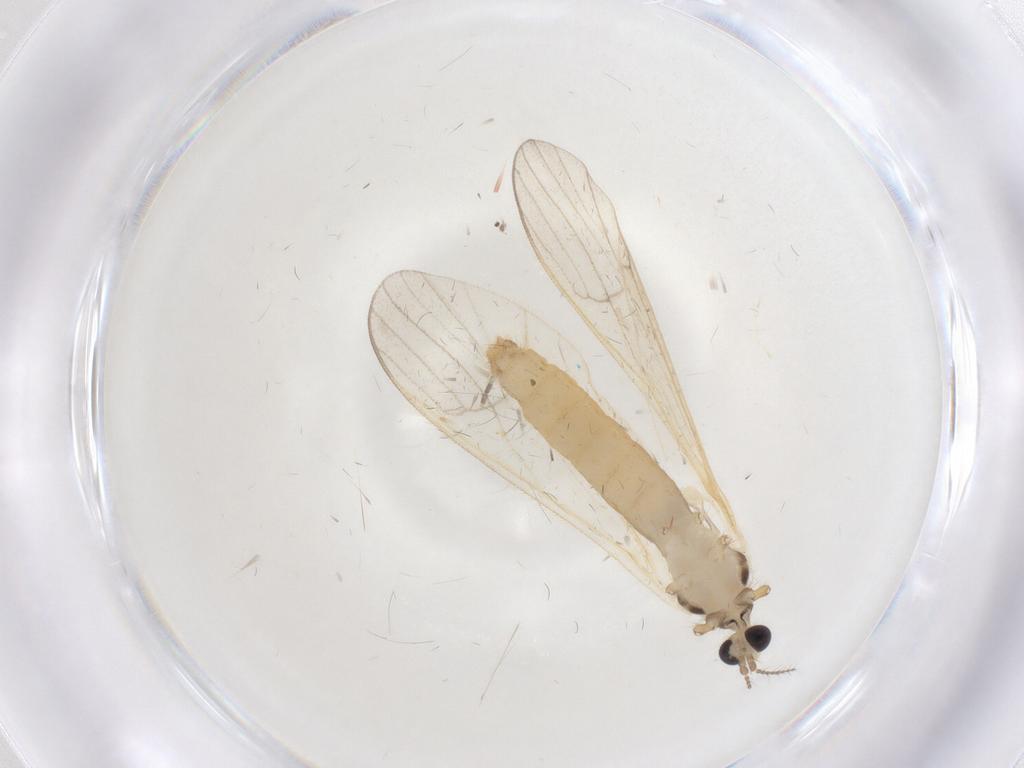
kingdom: Animalia
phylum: Arthropoda
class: Insecta
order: Diptera
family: Limoniidae
